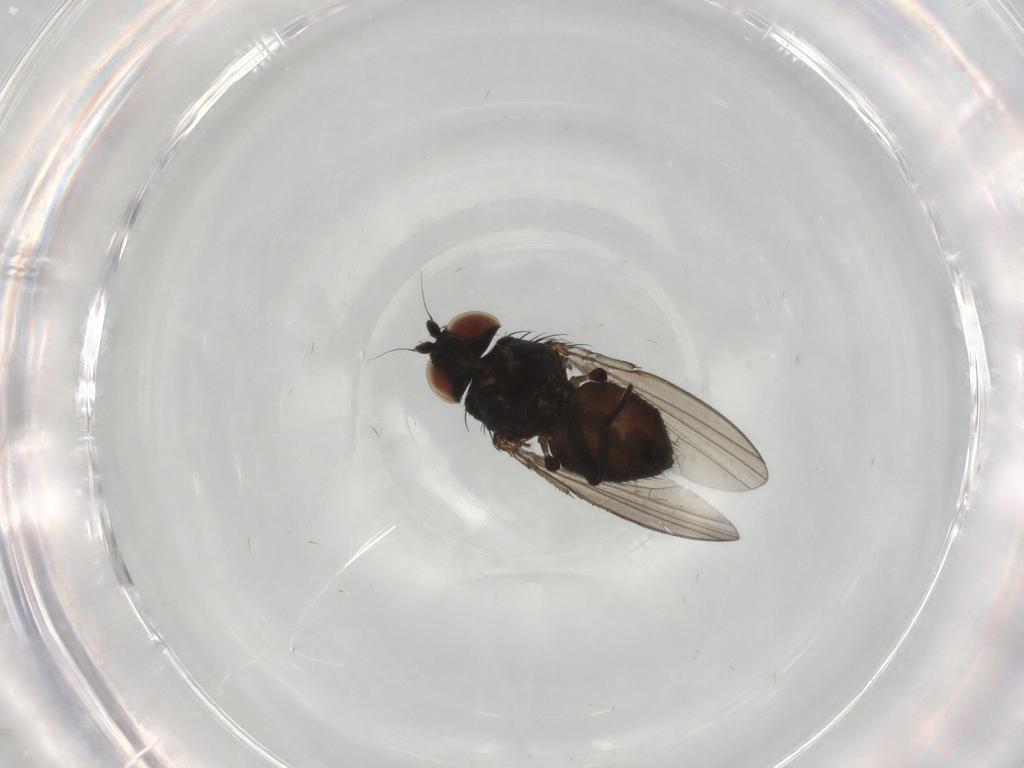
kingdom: Animalia
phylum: Arthropoda
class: Insecta
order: Diptera
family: Milichiidae
